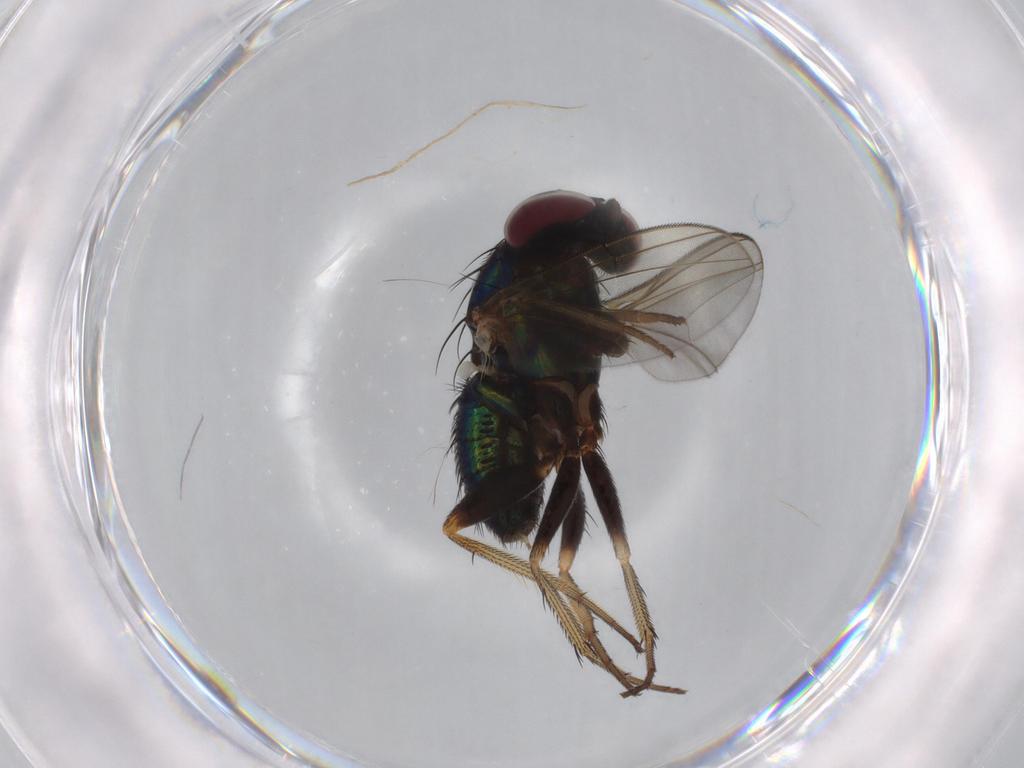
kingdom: Animalia
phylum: Arthropoda
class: Insecta
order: Diptera
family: Dolichopodidae
